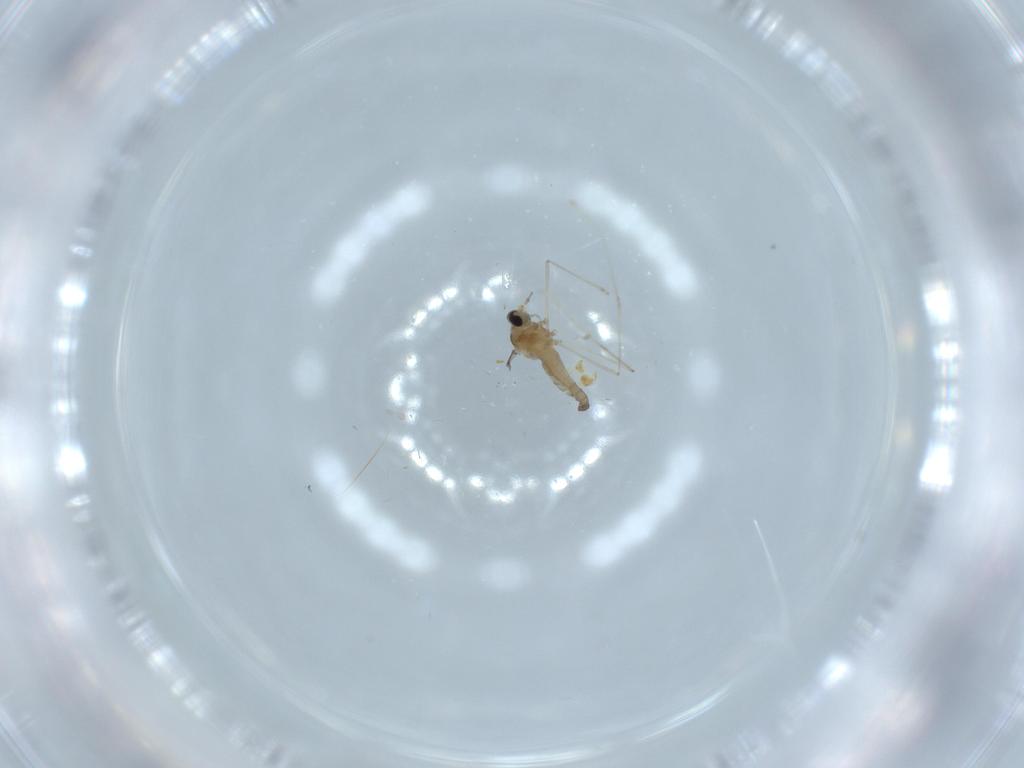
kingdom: Animalia
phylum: Arthropoda
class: Insecta
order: Diptera
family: Cecidomyiidae
